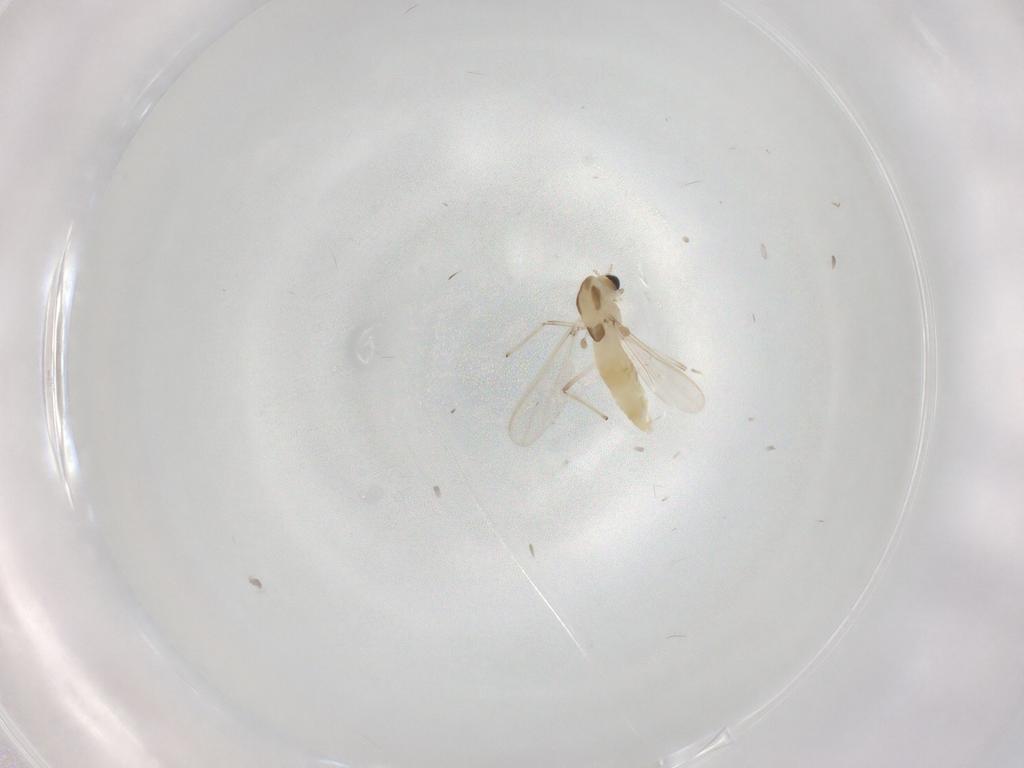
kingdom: Animalia
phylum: Arthropoda
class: Insecta
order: Diptera
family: Chironomidae
